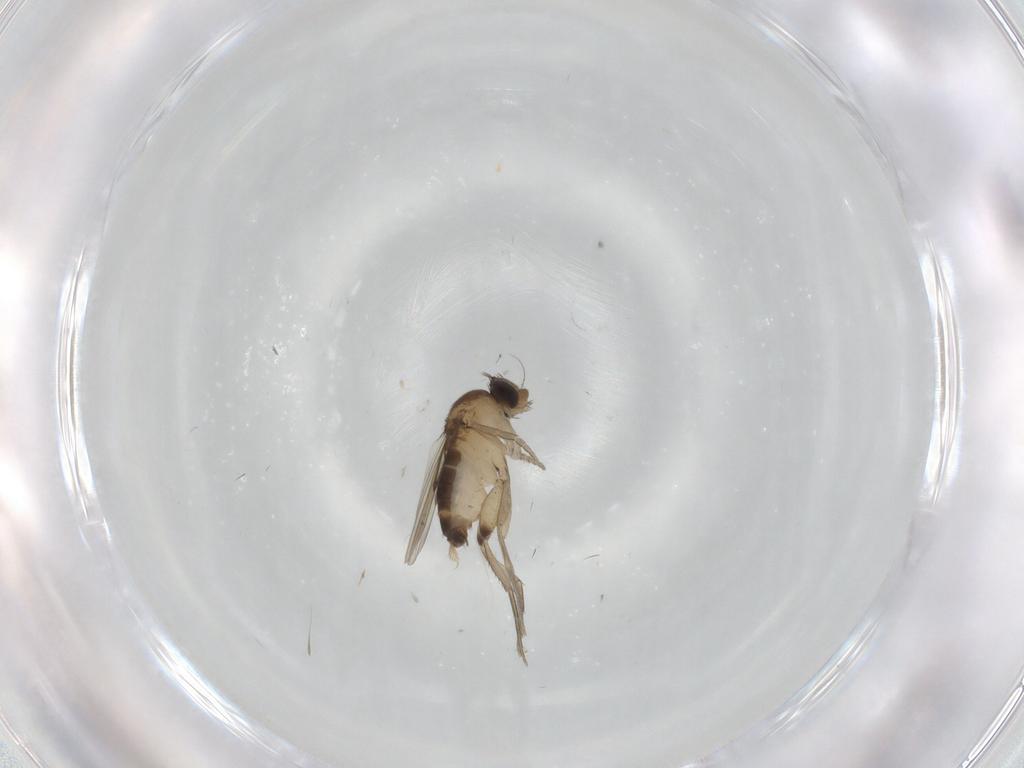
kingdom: Animalia
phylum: Arthropoda
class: Insecta
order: Diptera
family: Phoridae
